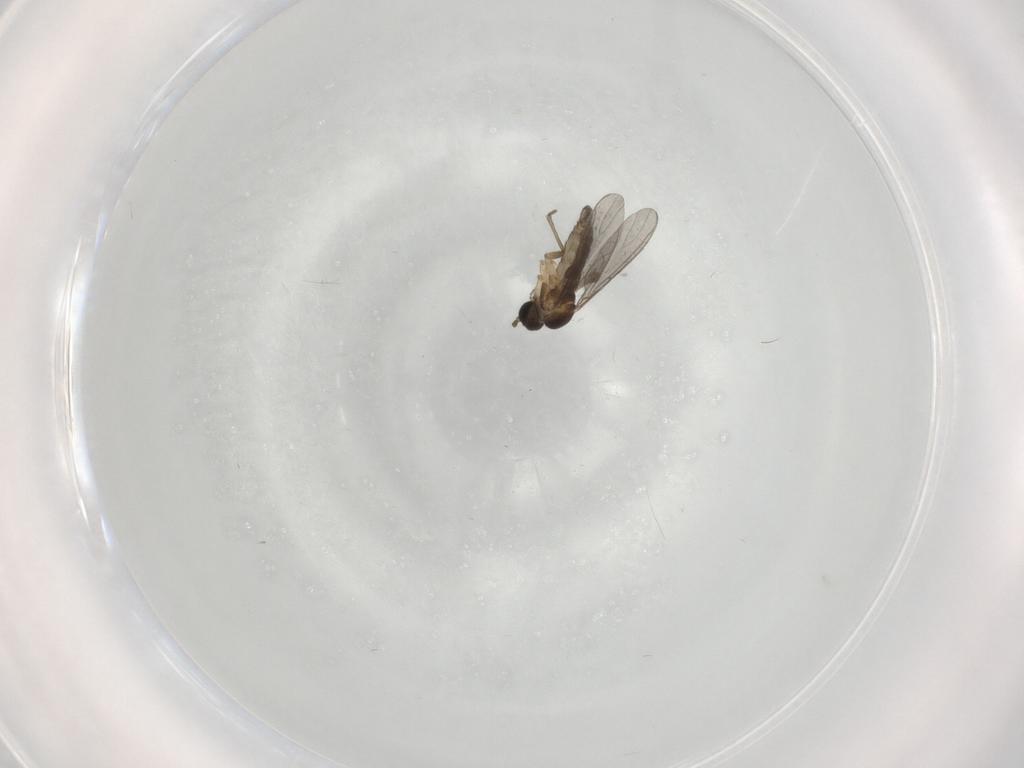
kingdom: Animalia
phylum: Arthropoda
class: Insecta
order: Diptera
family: Sciaridae
